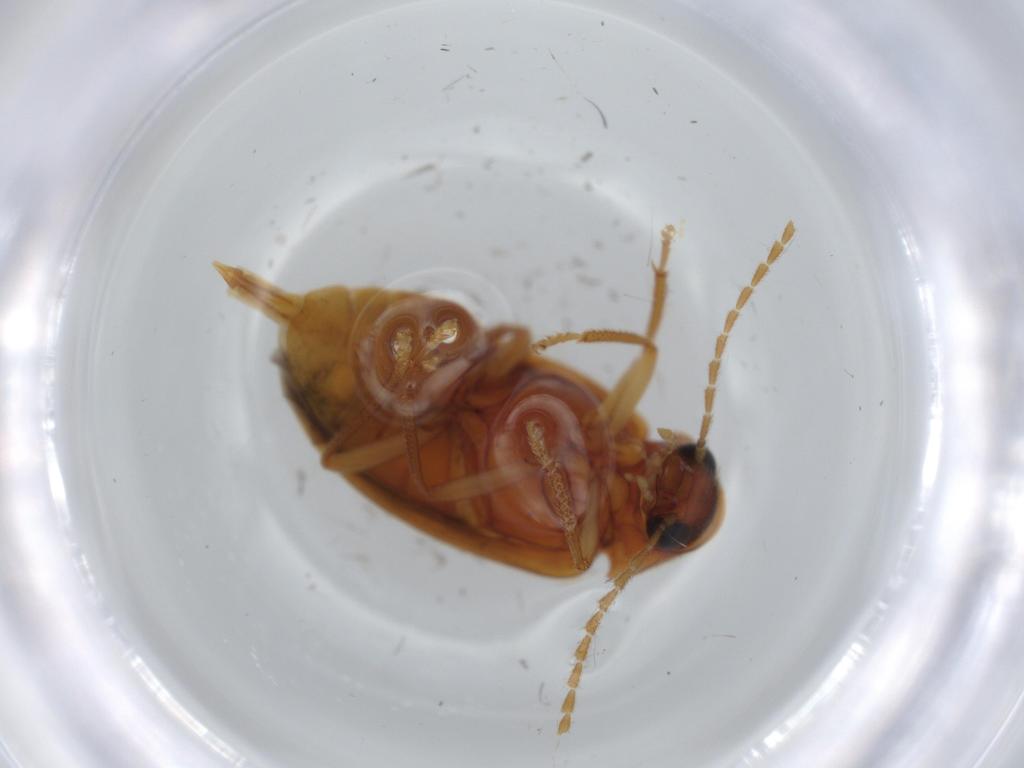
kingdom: Animalia
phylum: Arthropoda
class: Insecta
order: Coleoptera
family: Ptilodactylidae
